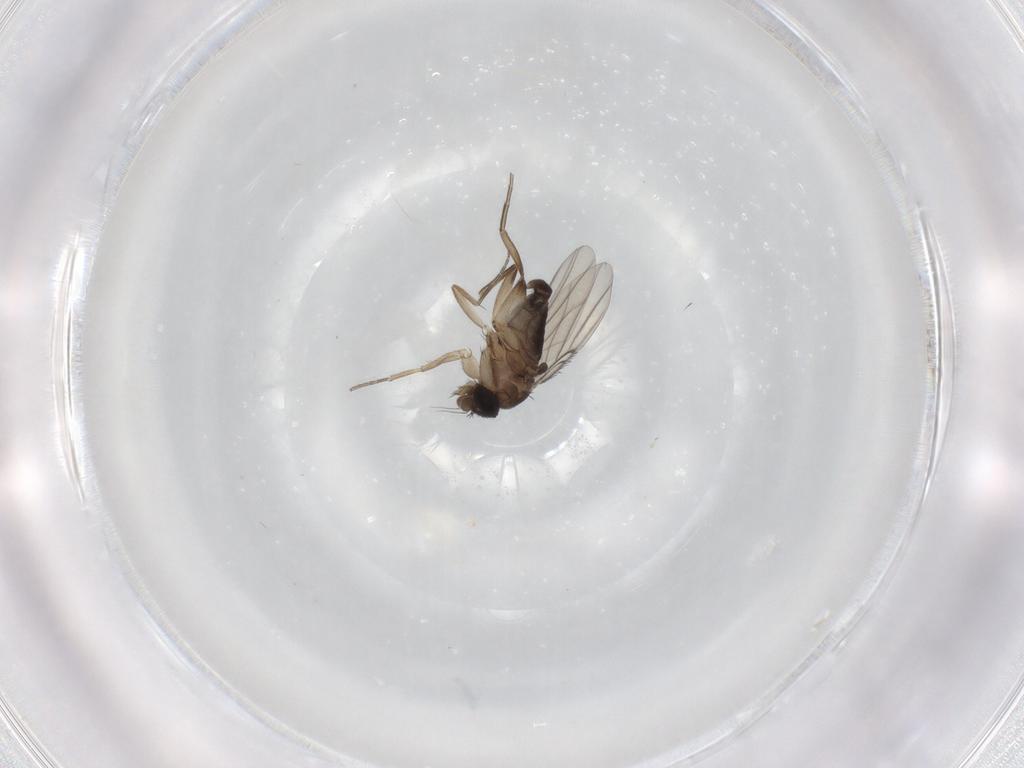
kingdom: Animalia
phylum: Arthropoda
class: Insecta
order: Diptera
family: Phoridae
